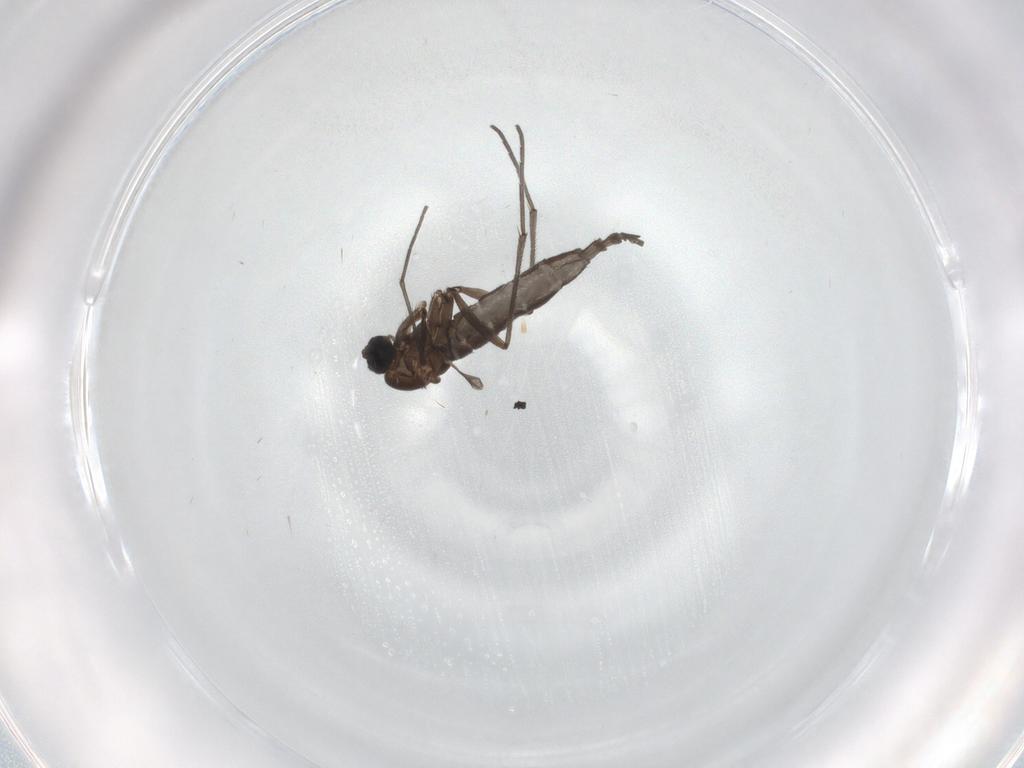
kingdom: Animalia
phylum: Arthropoda
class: Insecta
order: Diptera
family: Sciaridae
